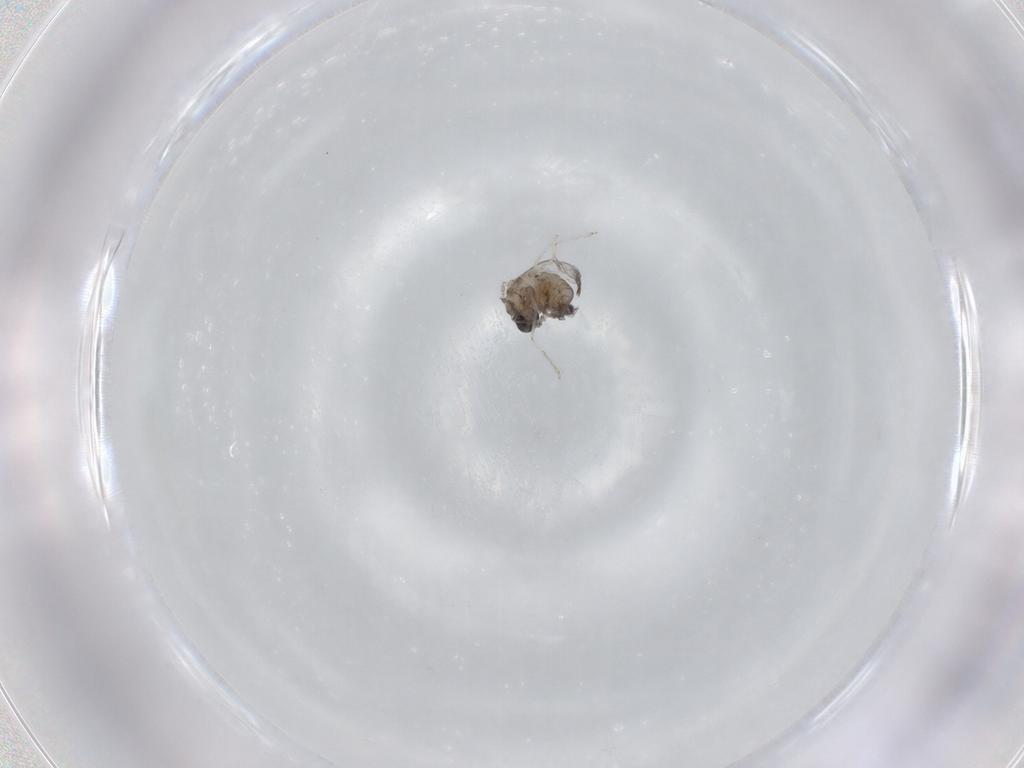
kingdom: Animalia
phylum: Arthropoda
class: Insecta
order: Diptera
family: Cecidomyiidae
